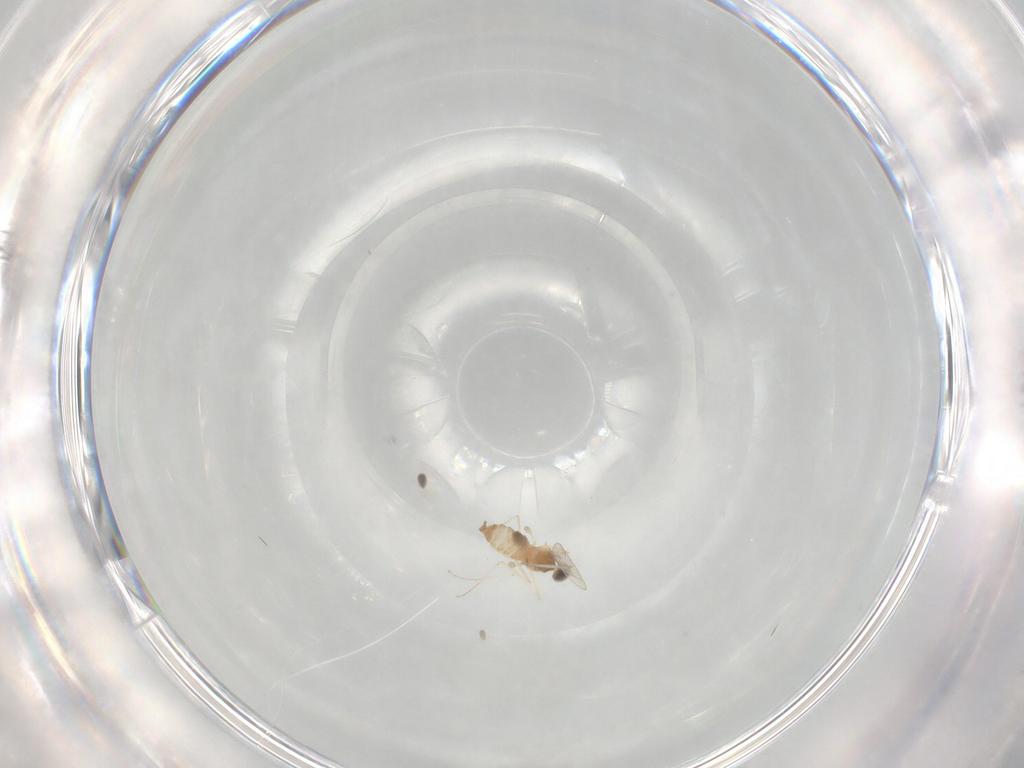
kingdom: Animalia
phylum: Arthropoda
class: Insecta
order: Diptera
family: Cecidomyiidae
